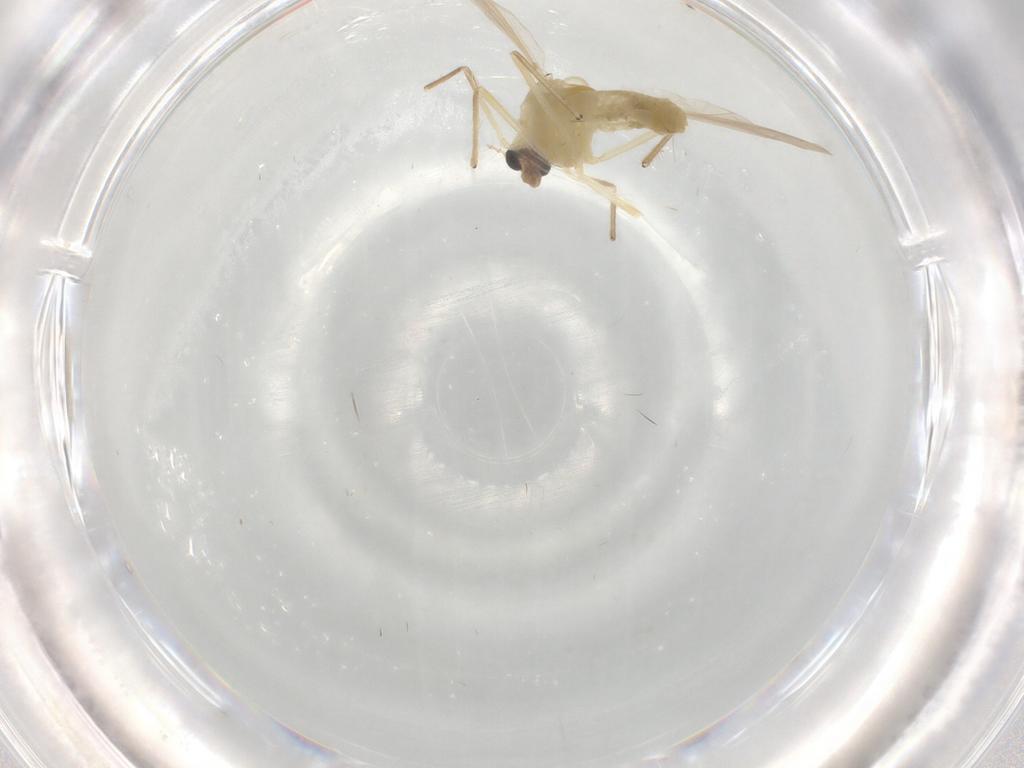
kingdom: Animalia
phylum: Arthropoda
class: Insecta
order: Diptera
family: Chironomidae
